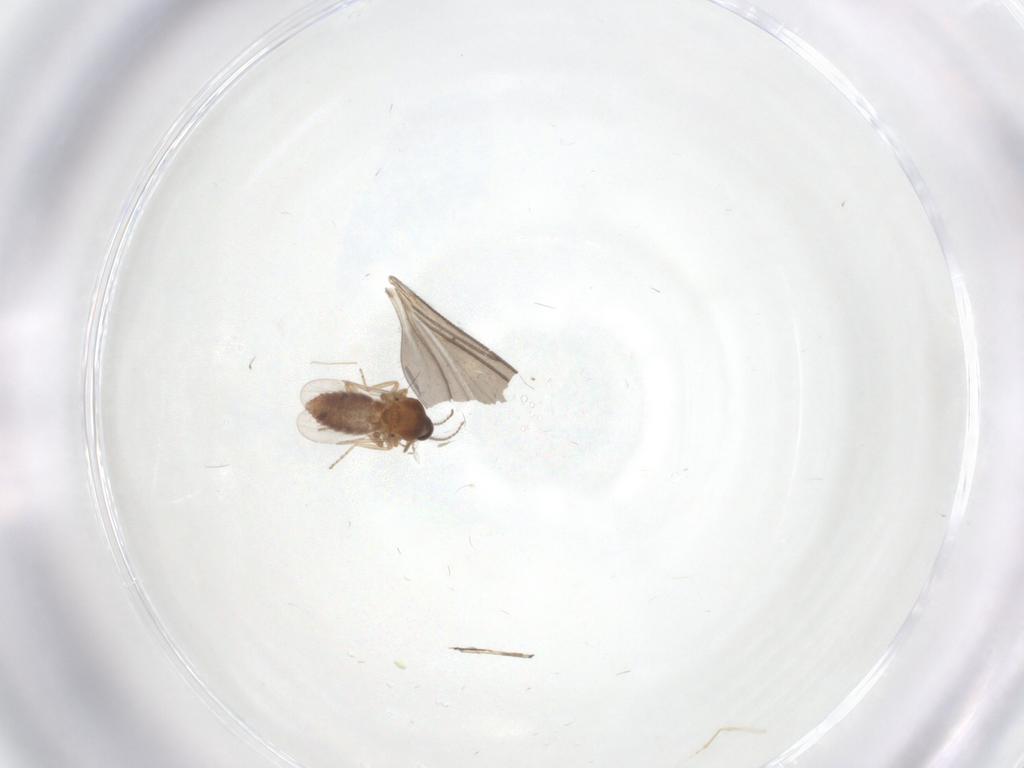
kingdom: Animalia
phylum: Arthropoda
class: Insecta
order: Diptera
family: Ceratopogonidae
